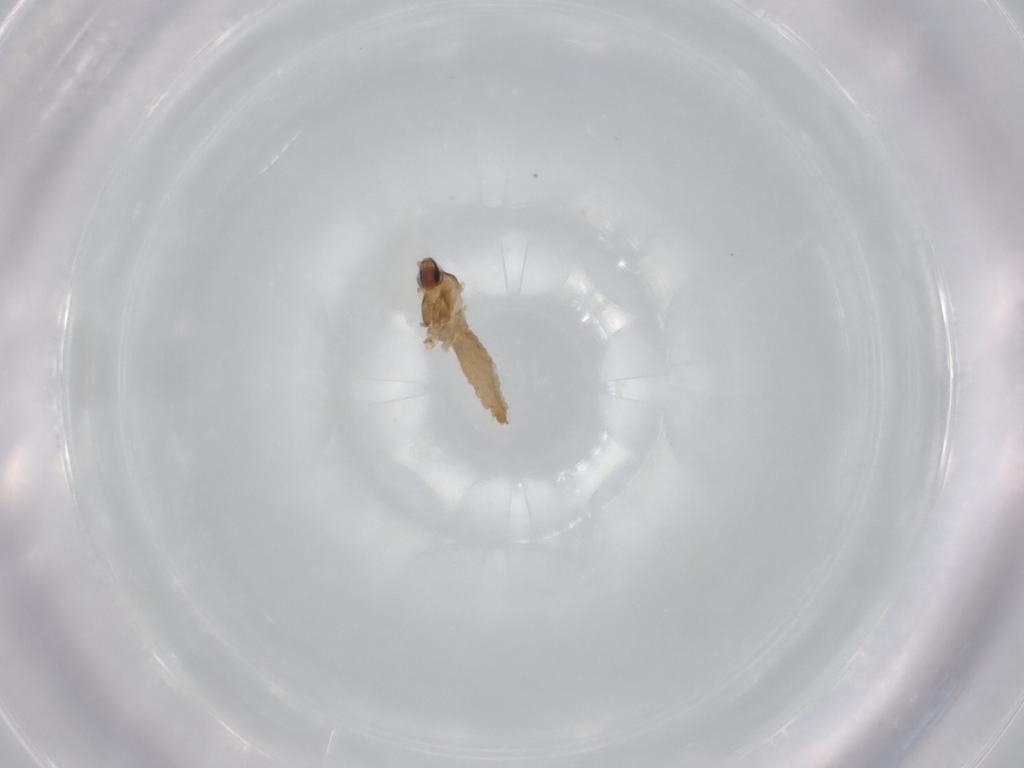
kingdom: Animalia
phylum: Arthropoda
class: Insecta
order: Diptera
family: Cecidomyiidae
